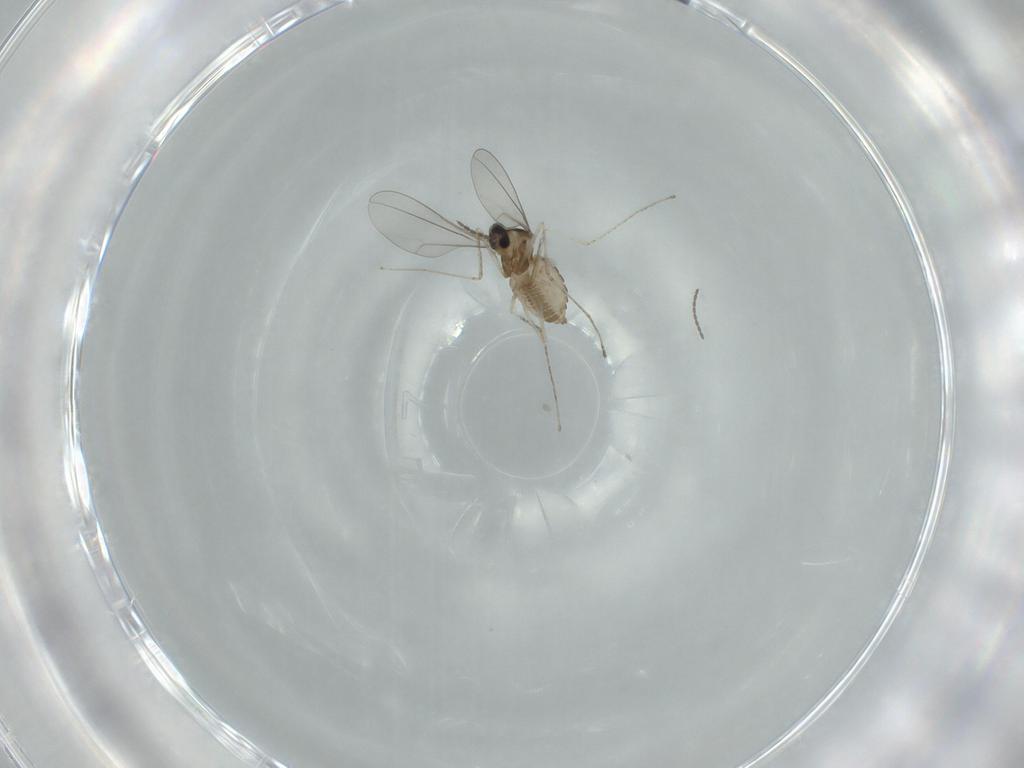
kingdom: Animalia
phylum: Arthropoda
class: Insecta
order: Diptera
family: Cecidomyiidae
